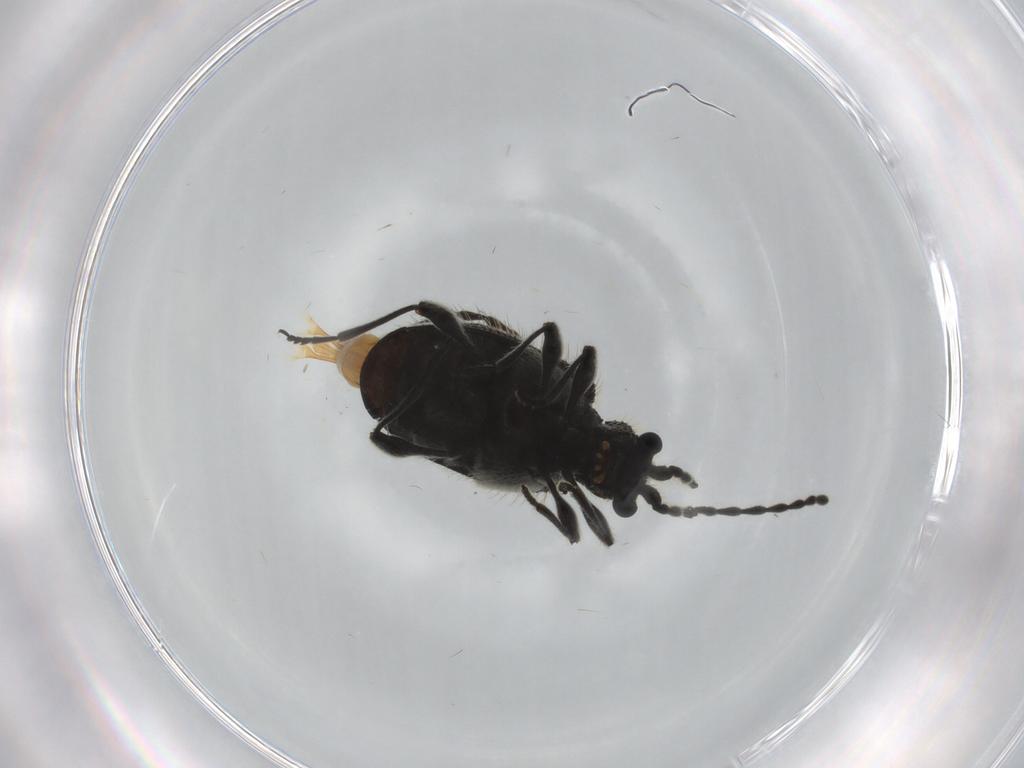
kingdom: Animalia
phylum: Arthropoda
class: Insecta
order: Coleoptera
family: Ptinidae
